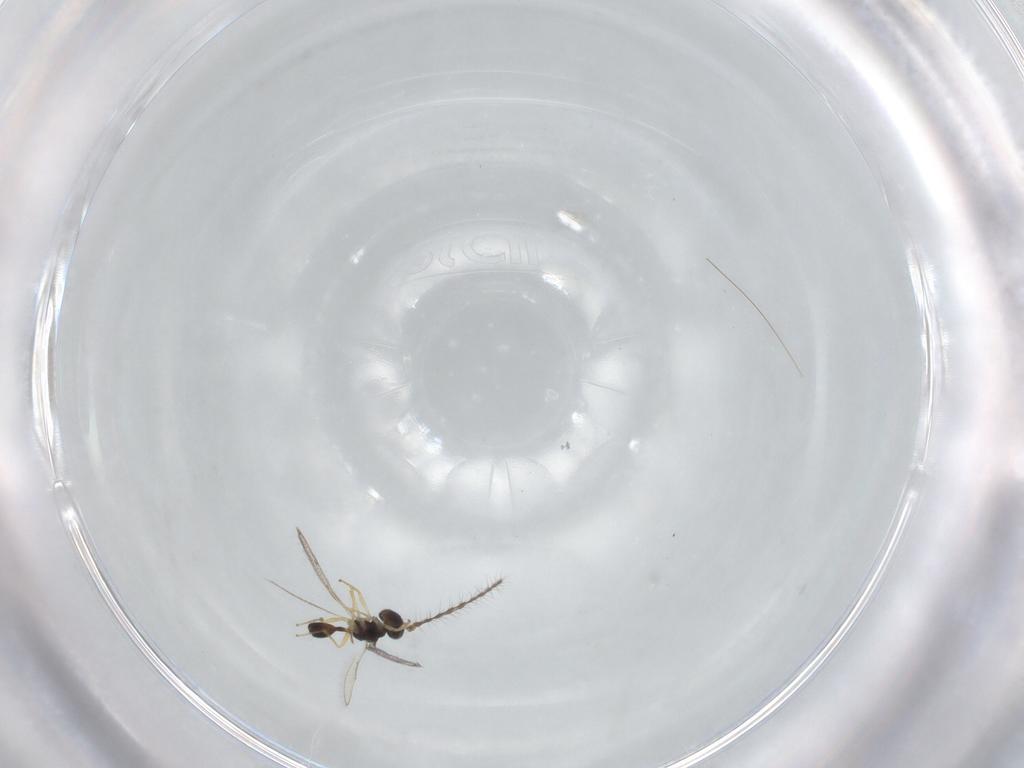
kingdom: Animalia
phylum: Arthropoda
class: Insecta
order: Hymenoptera
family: Diparidae
